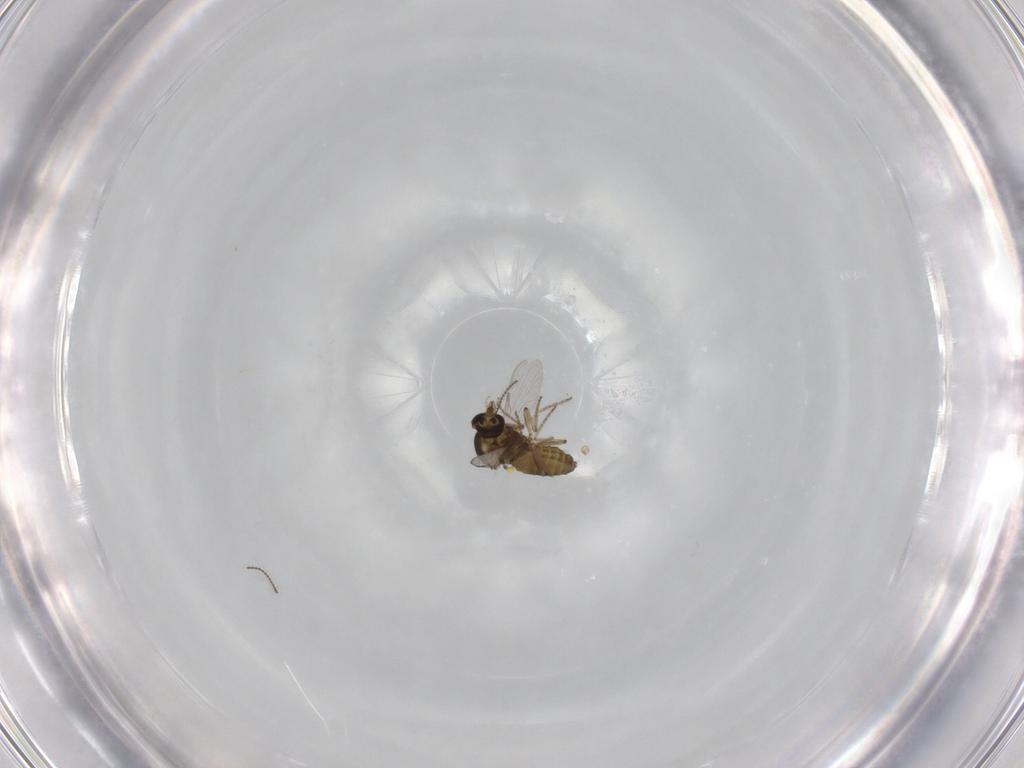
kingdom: Animalia
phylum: Arthropoda
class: Insecta
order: Diptera
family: Ceratopogonidae
